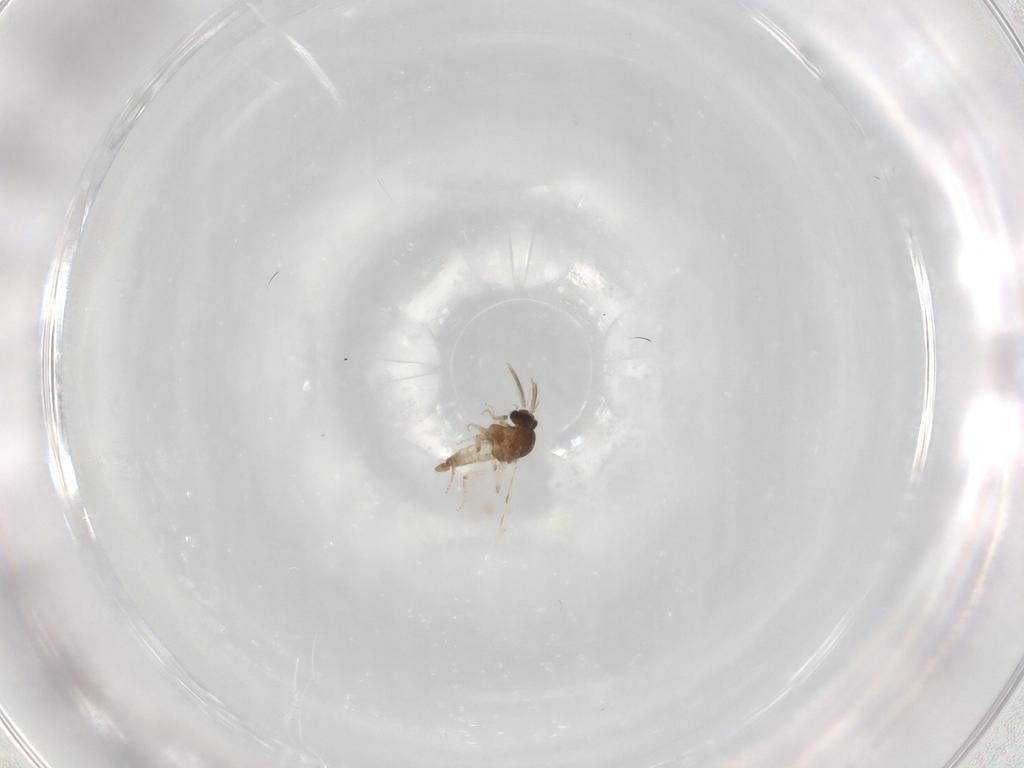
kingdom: Animalia
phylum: Arthropoda
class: Insecta
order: Diptera
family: Ceratopogonidae
